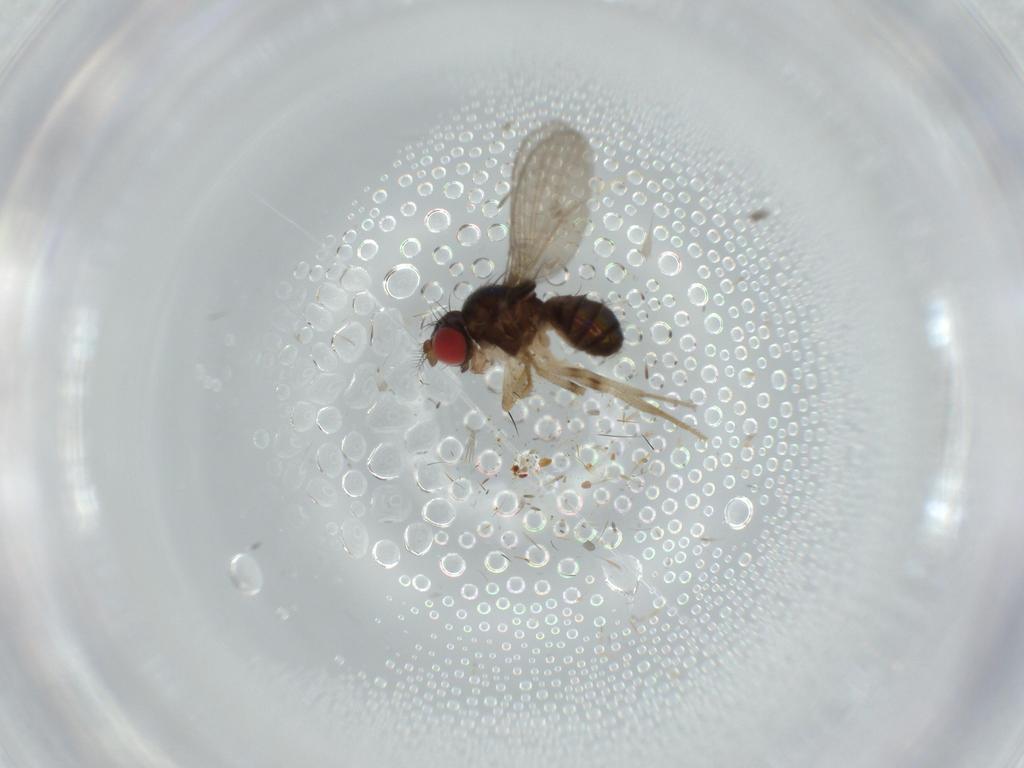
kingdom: Animalia
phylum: Arthropoda
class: Insecta
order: Diptera
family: Drosophilidae
